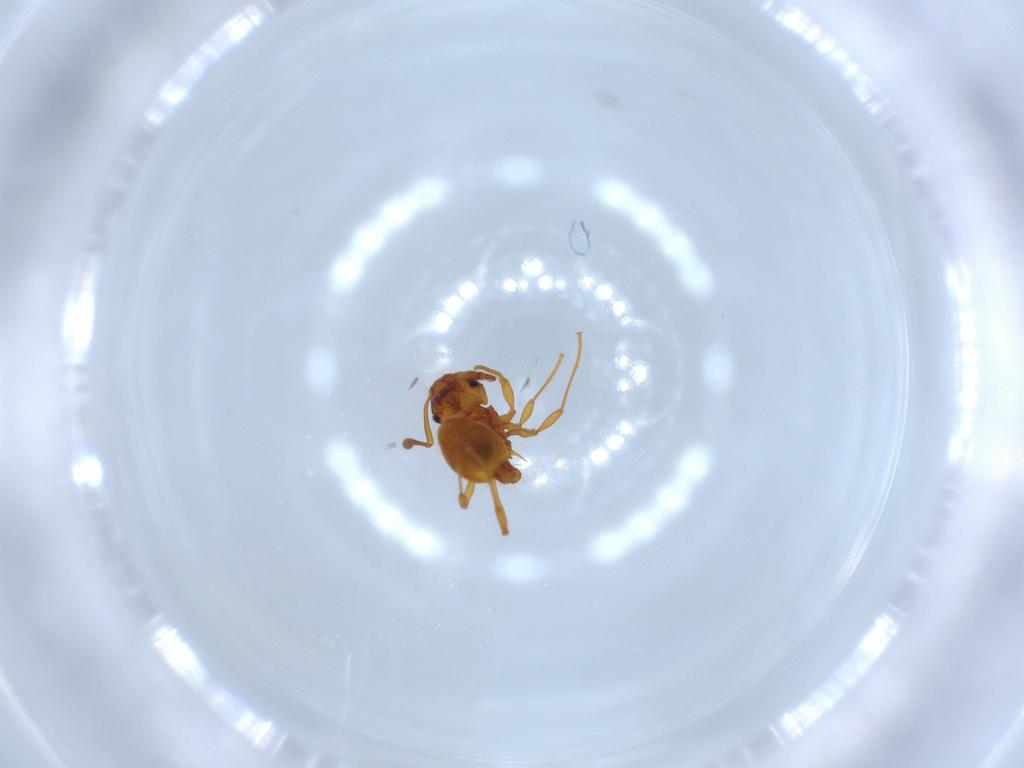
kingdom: Animalia
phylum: Arthropoda
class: Insecta
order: Hymenoptera
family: Formicidae
